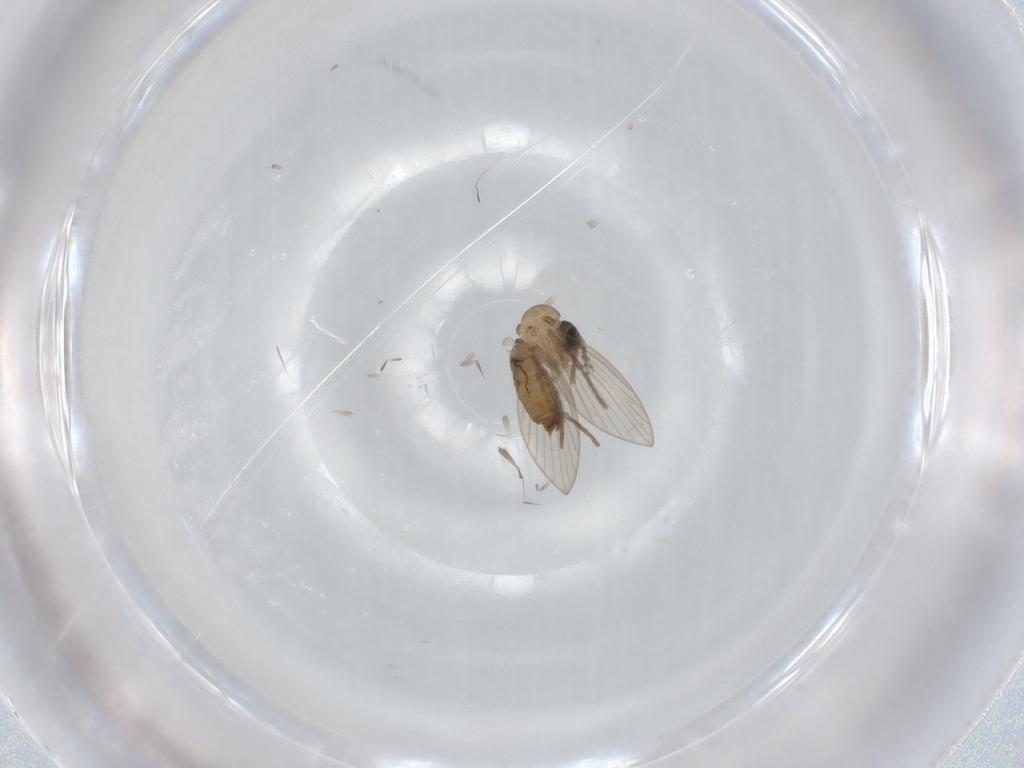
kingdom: Animalia
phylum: Arthropoda
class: Insecta
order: Diptera
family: Psychodidae
